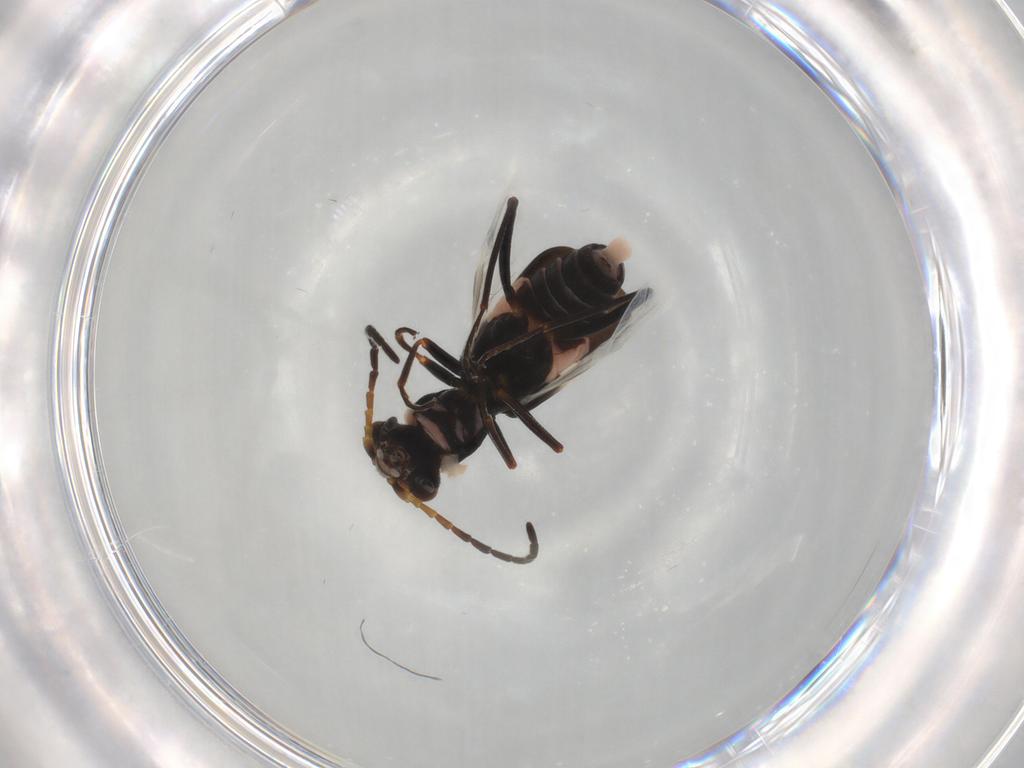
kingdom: Animalia
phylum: Arthropoda
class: Insecta
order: Coleoptera
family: Melyridae
